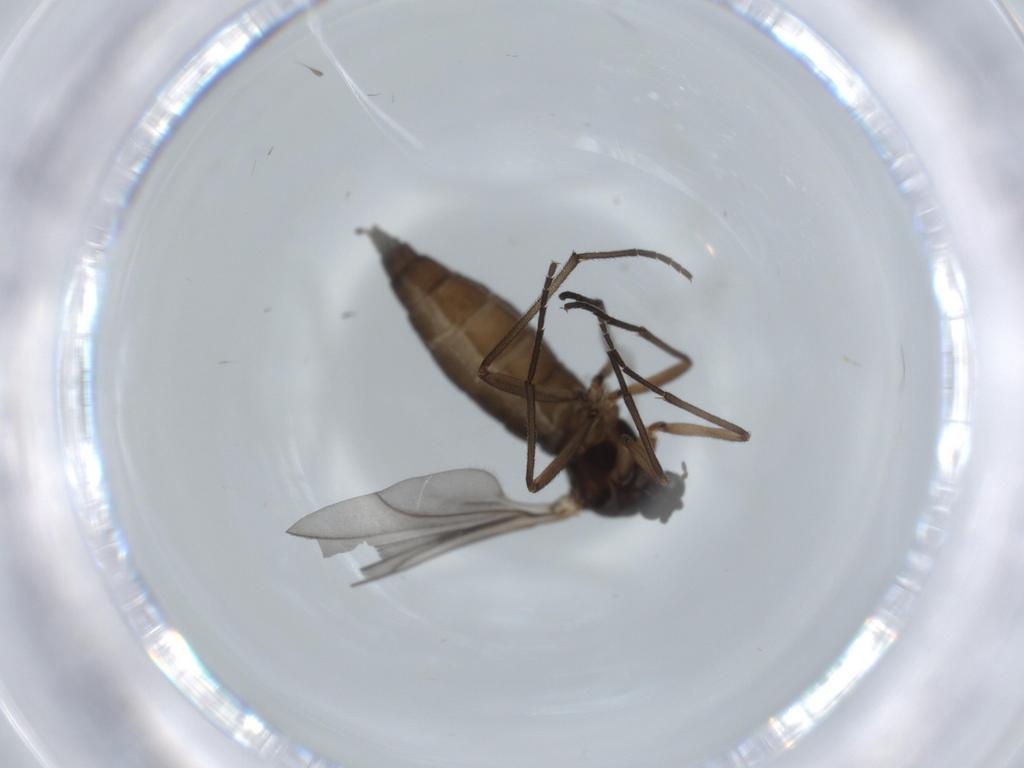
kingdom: Animalia
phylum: Arthropoda
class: Insecta
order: Diptera
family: Sciaridae
